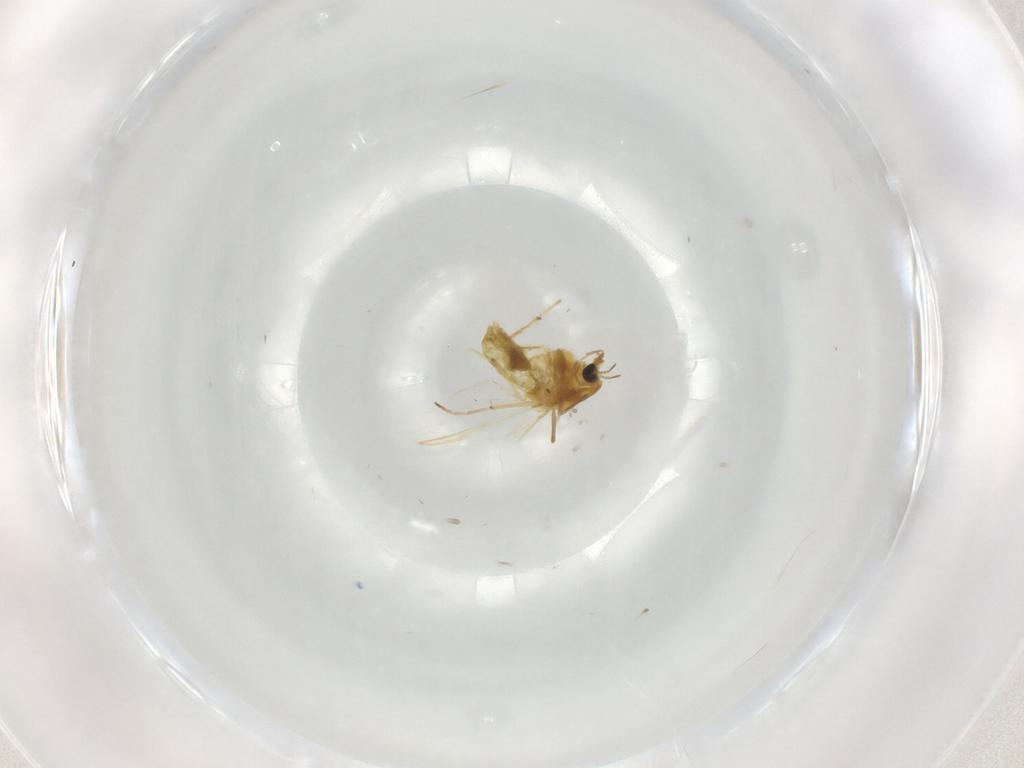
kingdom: Animalia
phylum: Arthropoda
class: Insecta
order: Diptera
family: Chironomidae
